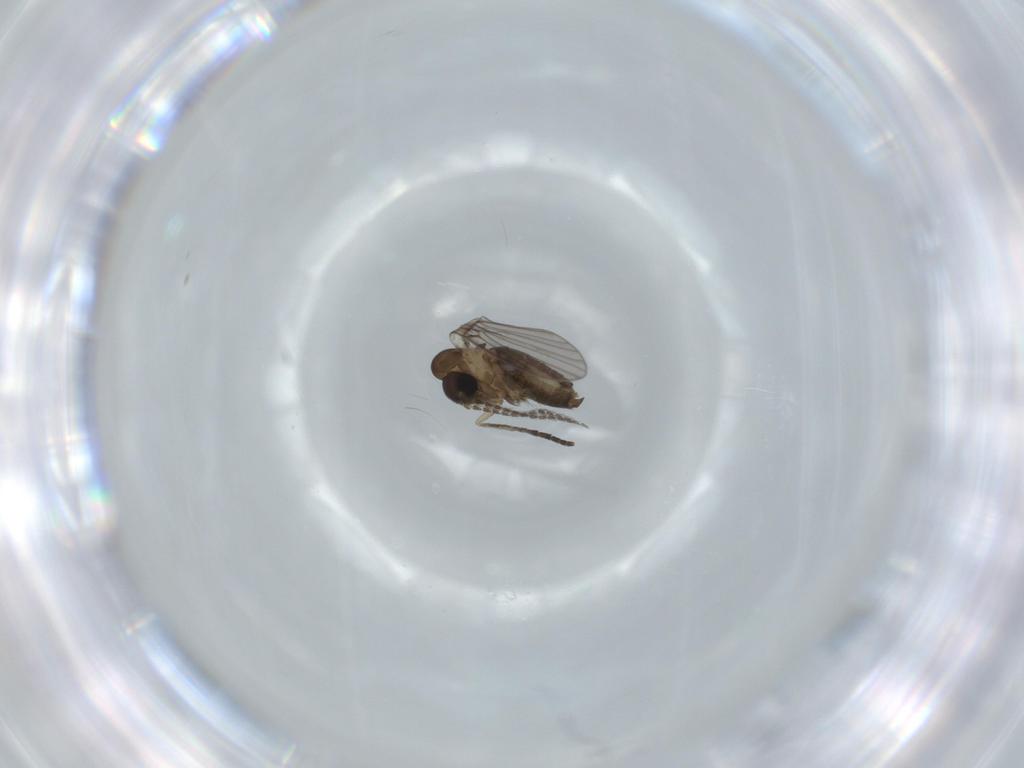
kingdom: Animalia
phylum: Arthropoda
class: Insecta
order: Diptera
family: Psychodidae
